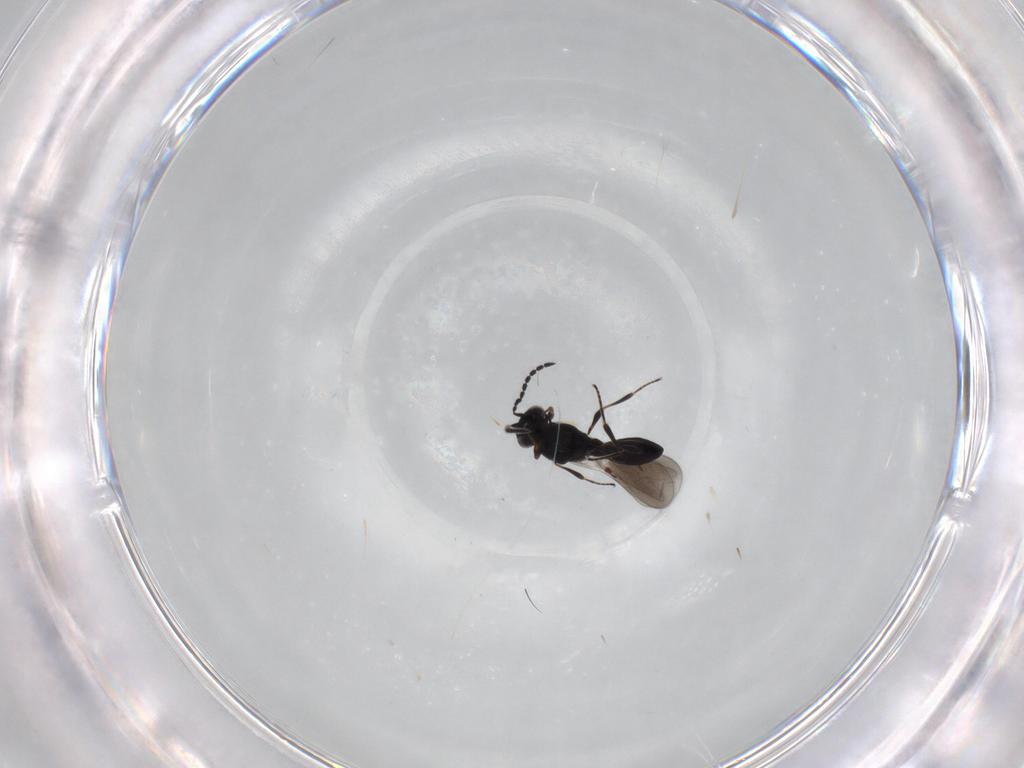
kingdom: Animalia
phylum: Arthropoda
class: Insecta
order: Hymenoptera
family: Platygastridae
